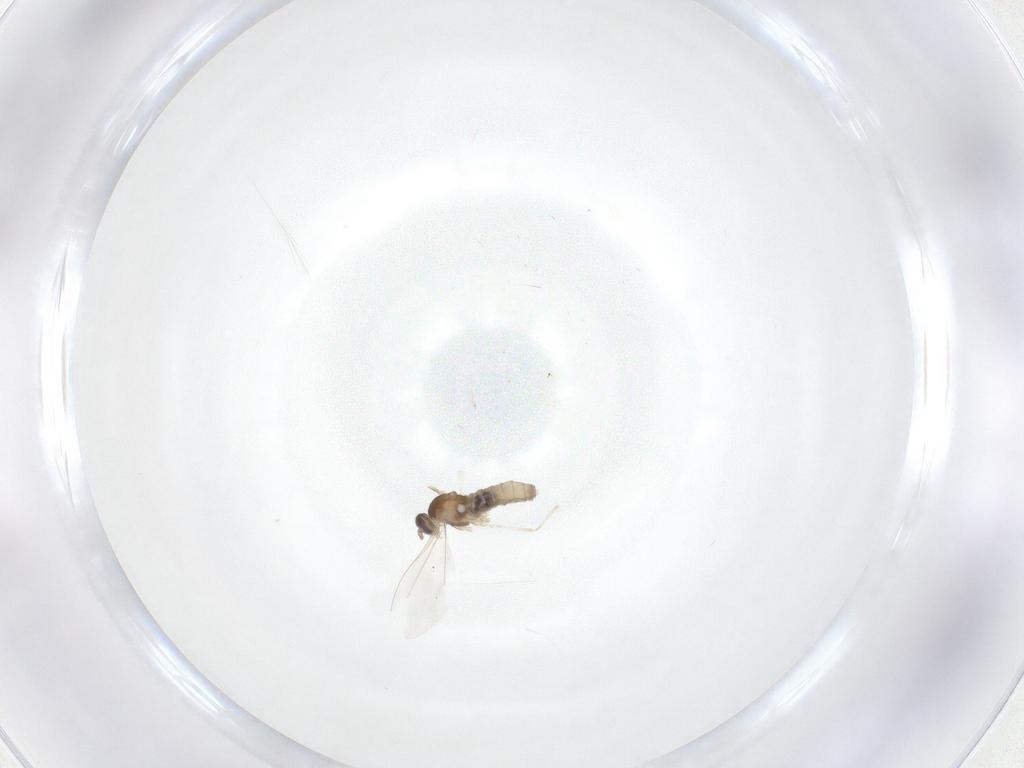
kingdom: Animalia
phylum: Arthropoda
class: Insecta
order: Diptera
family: Cecidomyiidae
